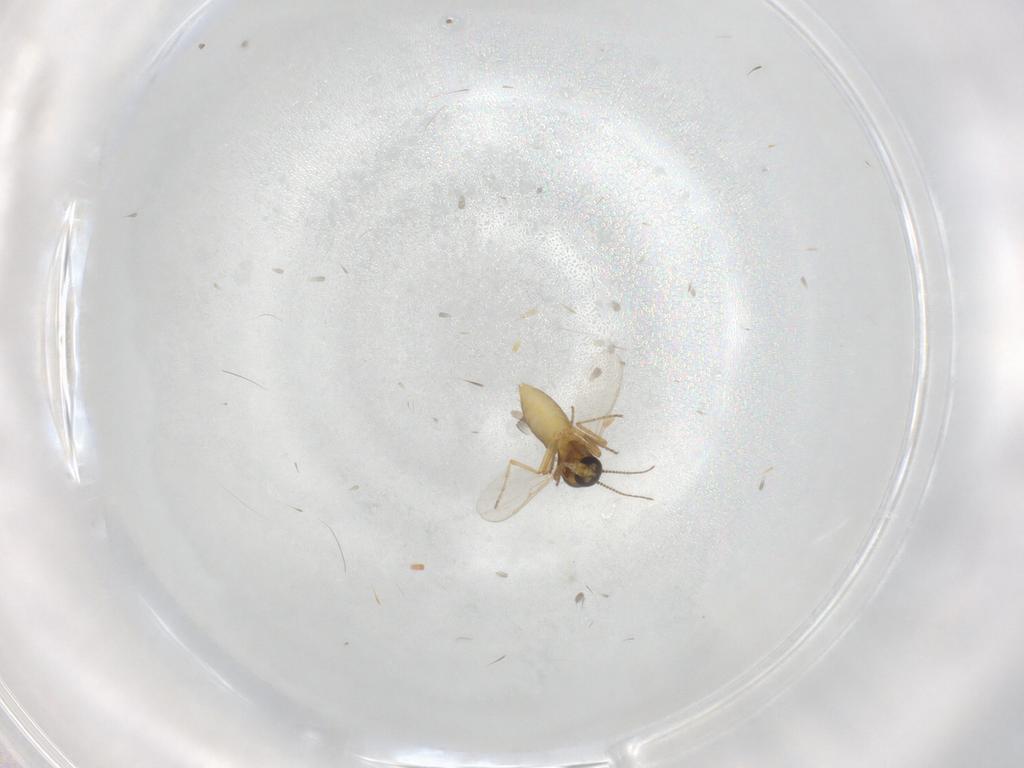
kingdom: Animalia
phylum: Arthropoda
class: Insecta
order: Diptera
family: Ceratopogonidae
